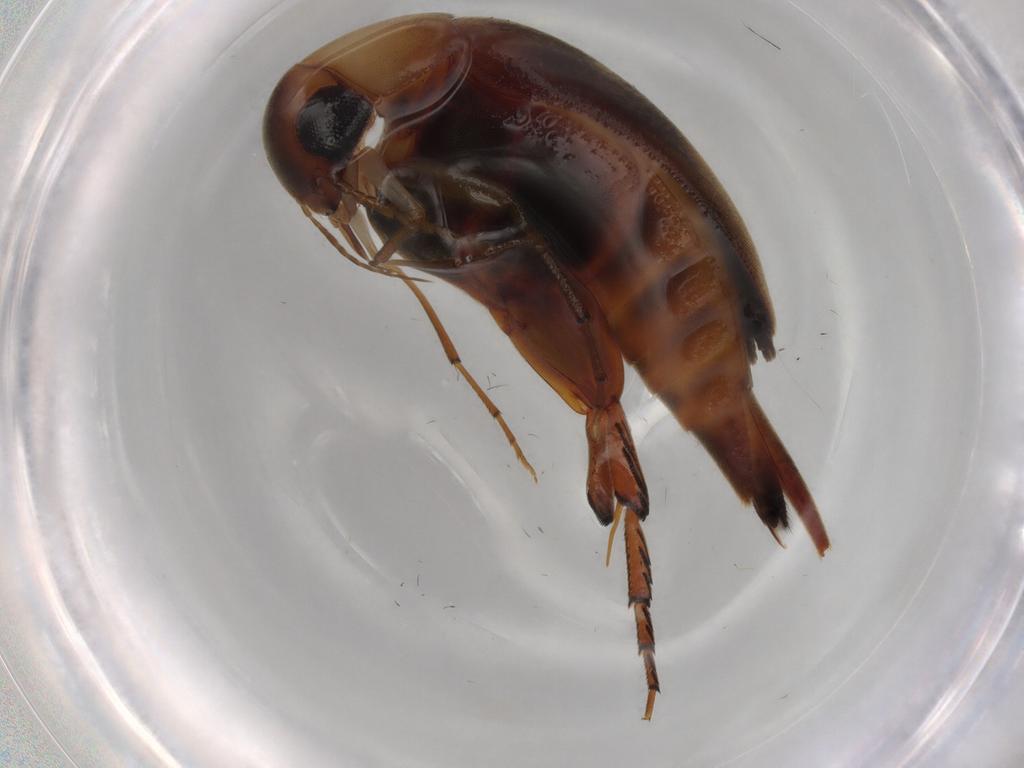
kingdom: Animalia
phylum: Arthropoda
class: Insecta
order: Coleoptera
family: Mordellidae
